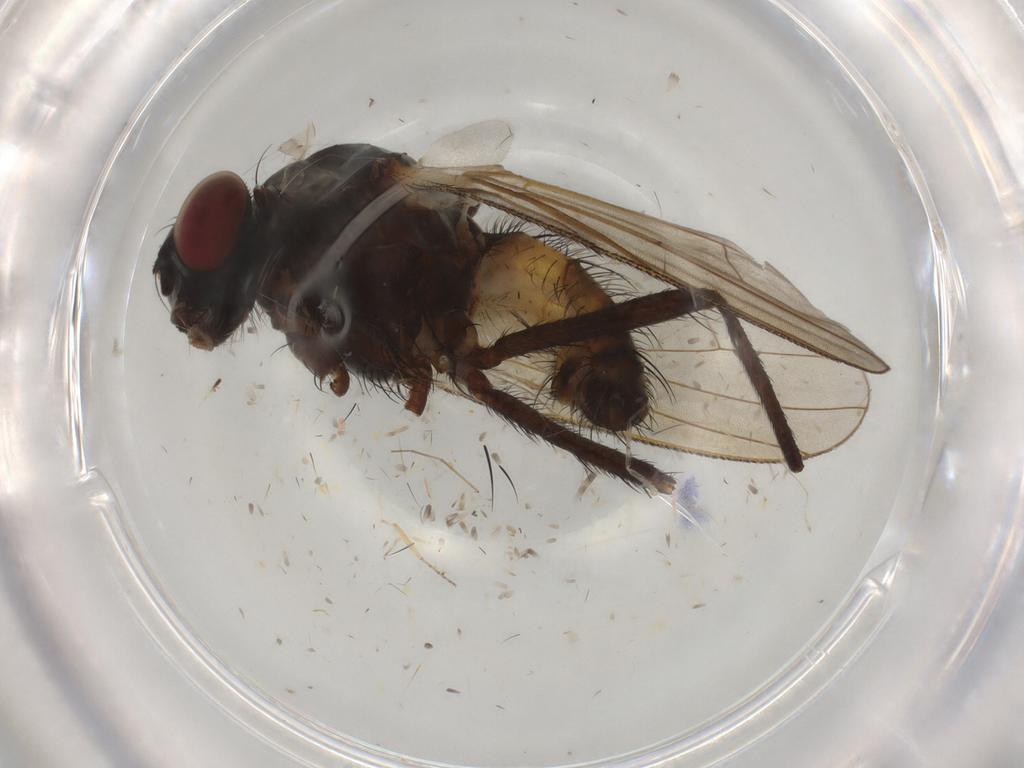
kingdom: Animalia
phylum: Arthropoda
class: Insecta
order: Diptera
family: Anthomyiidae
